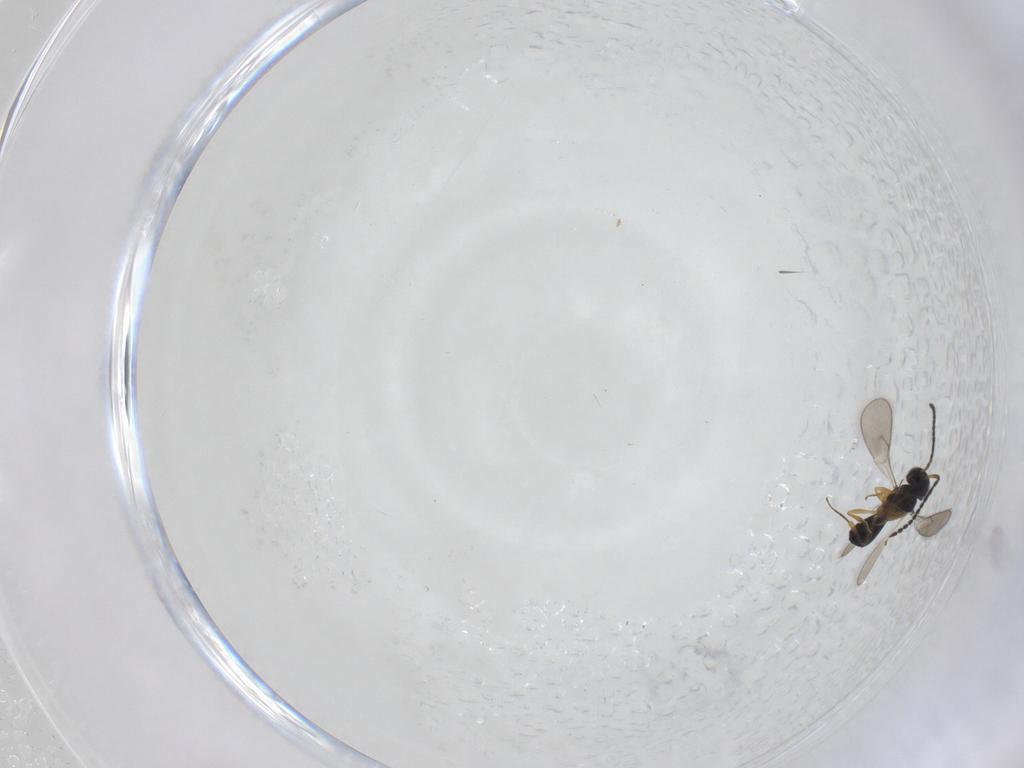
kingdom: Animalia
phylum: Arthropoda
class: Insecta
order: Hymenoptera
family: Scelionidae
